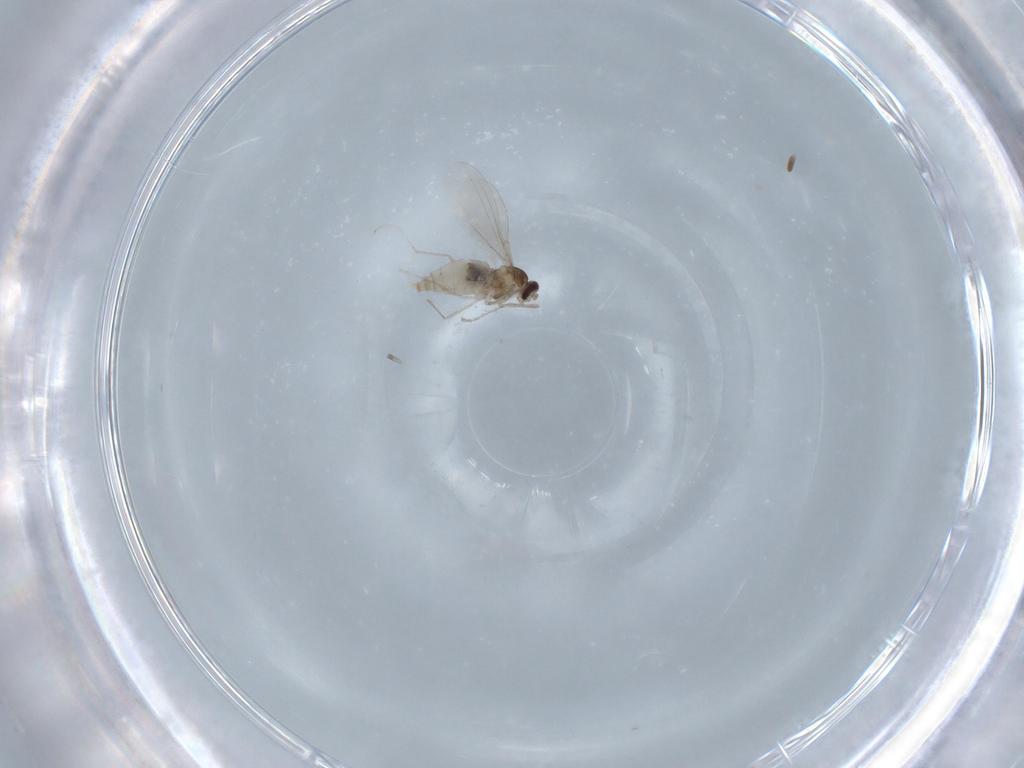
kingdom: Animalia
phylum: Arthropoda
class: Insecta
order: Diptera
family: Cecidomyiidae
